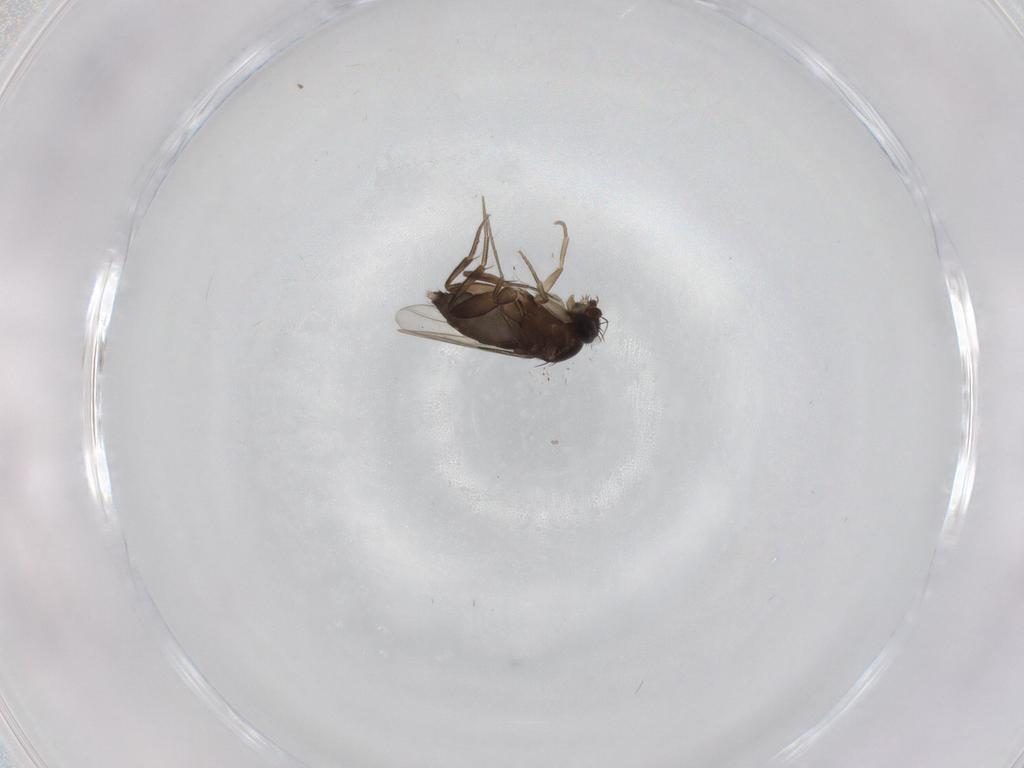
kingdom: Animalia
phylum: Arthropoda
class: Insecta
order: Diptera
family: Phoridae
